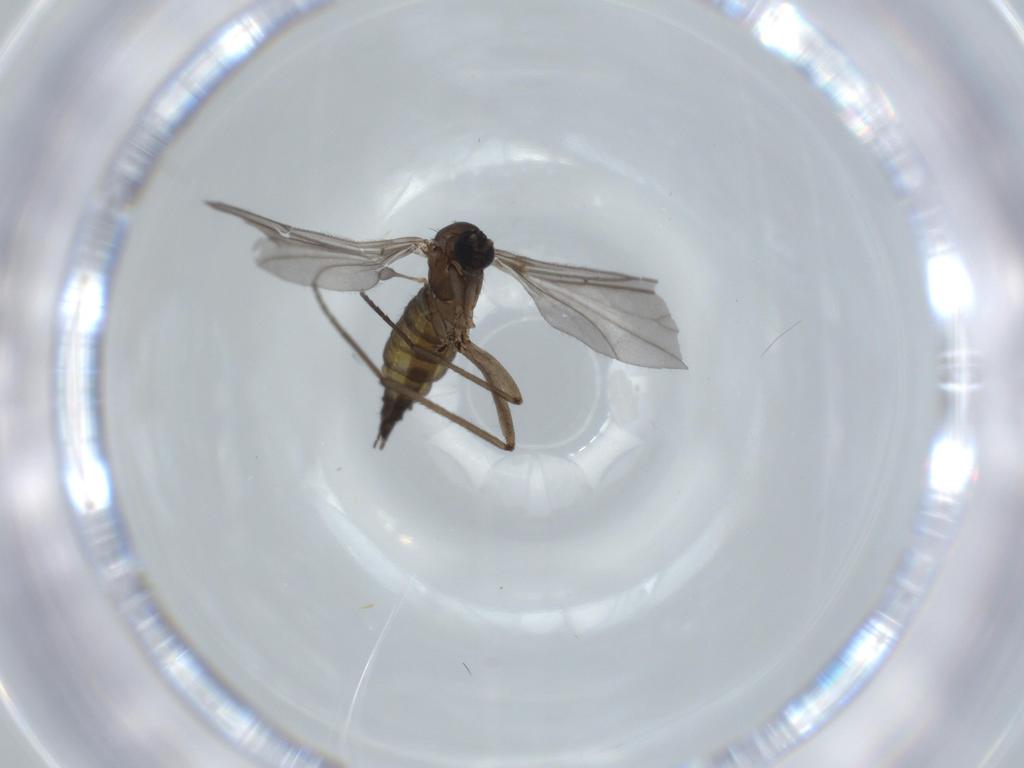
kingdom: Animalia
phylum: Arthropoda
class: Insecta
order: Diptera
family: Sciaridae
